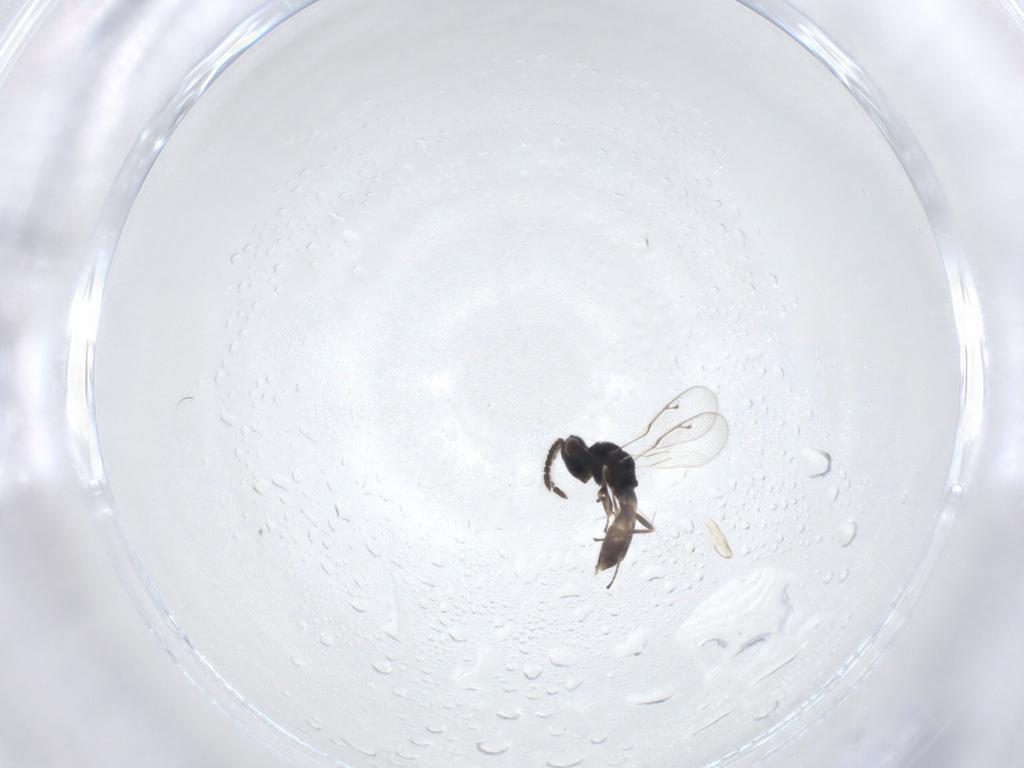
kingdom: Animalia
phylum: Arthropoda
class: Insecta
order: Hymenoptera
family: Pteromalidae
